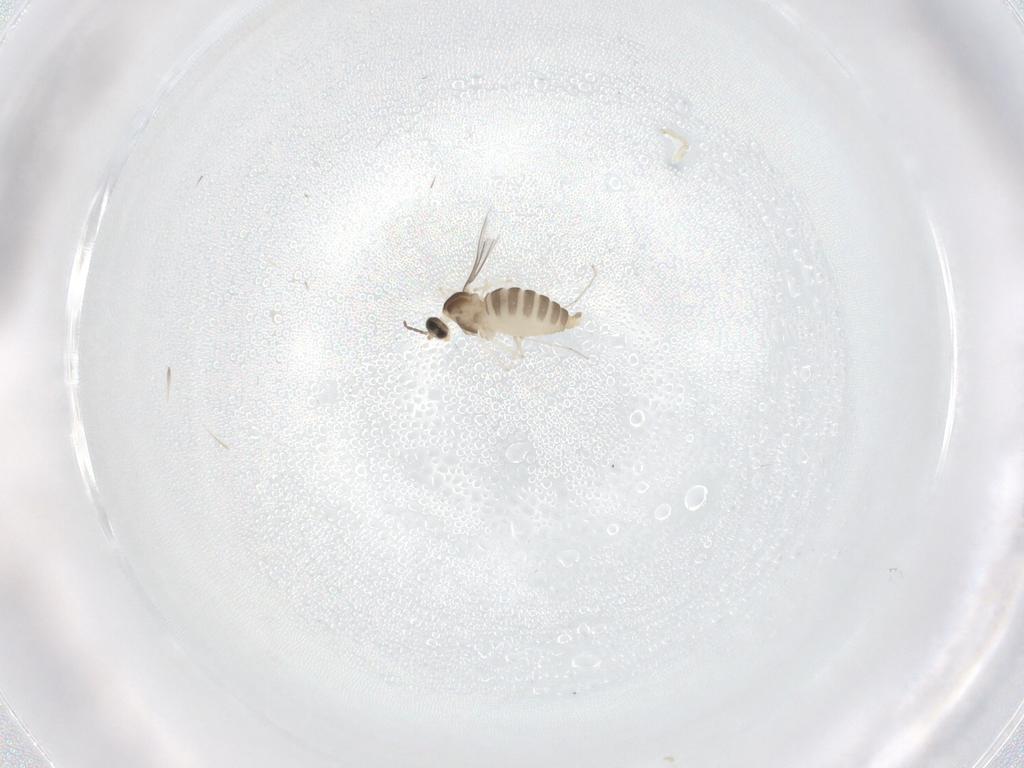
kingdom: Animalia
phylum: Arthropoda
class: Insecta
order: Diptera
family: Cecidomyiidae
